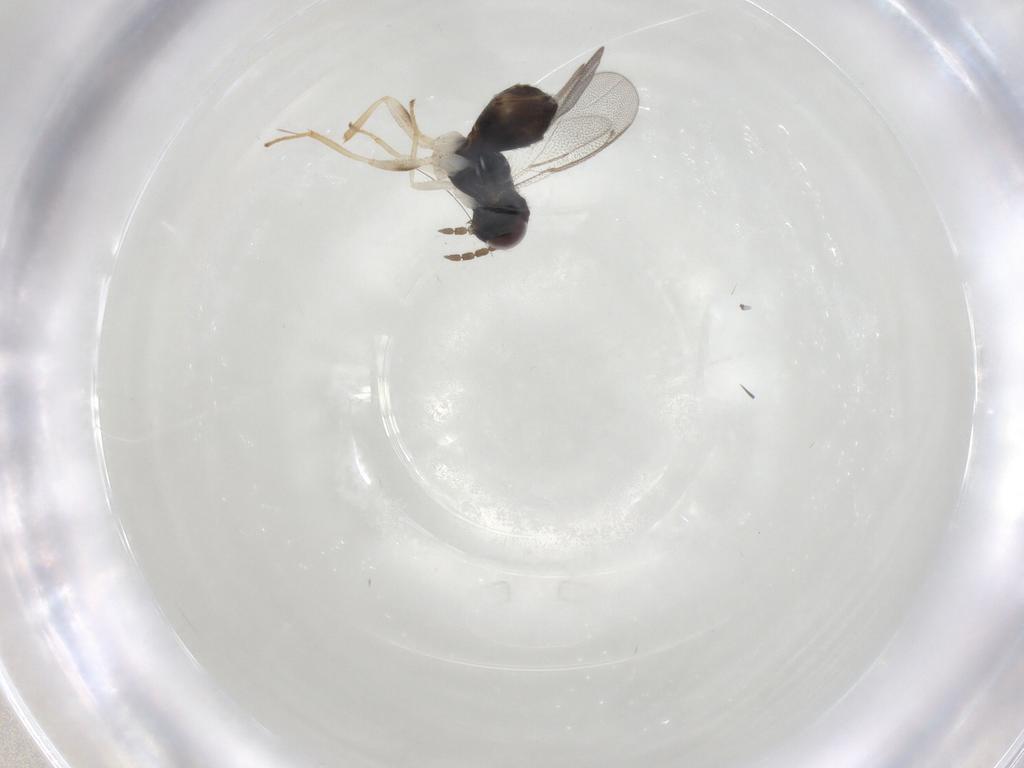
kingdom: Animalia
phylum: Arthropoda
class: Insecta
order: Hymenoptera
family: Eulophidae
